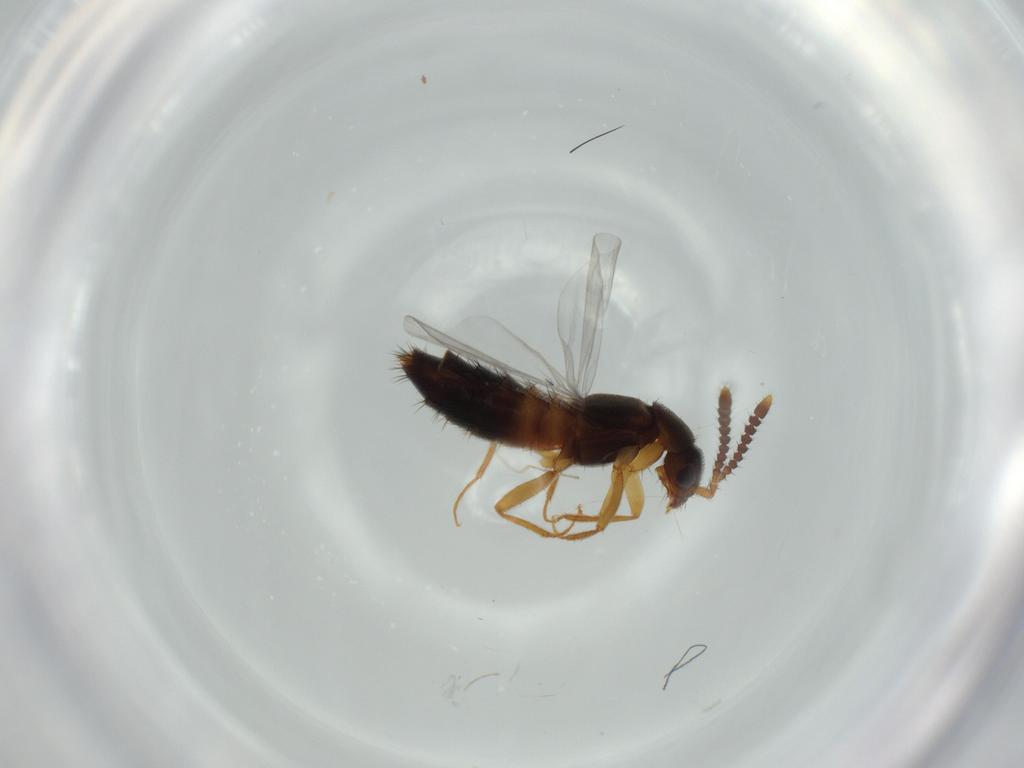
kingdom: Animalia
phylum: Arthropoda
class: Insecta
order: Coleoptera
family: Staphylinidae
